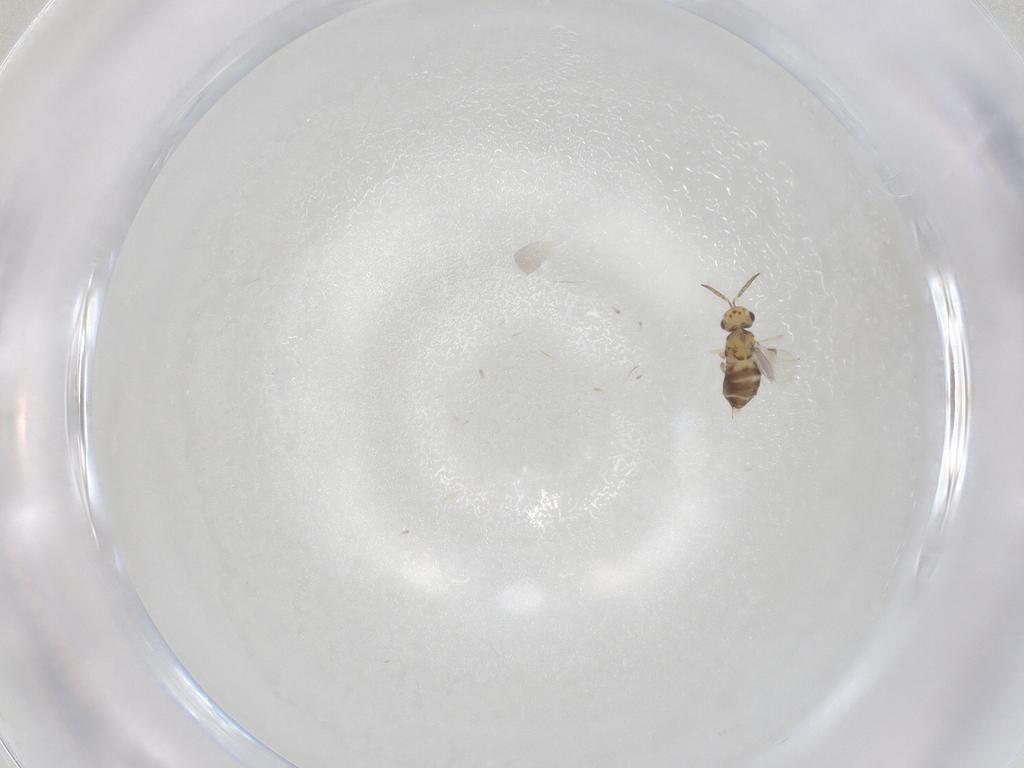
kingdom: Animalia
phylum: Arthropoda
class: Insecta
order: Hymenoptera
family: Aphelinidae
